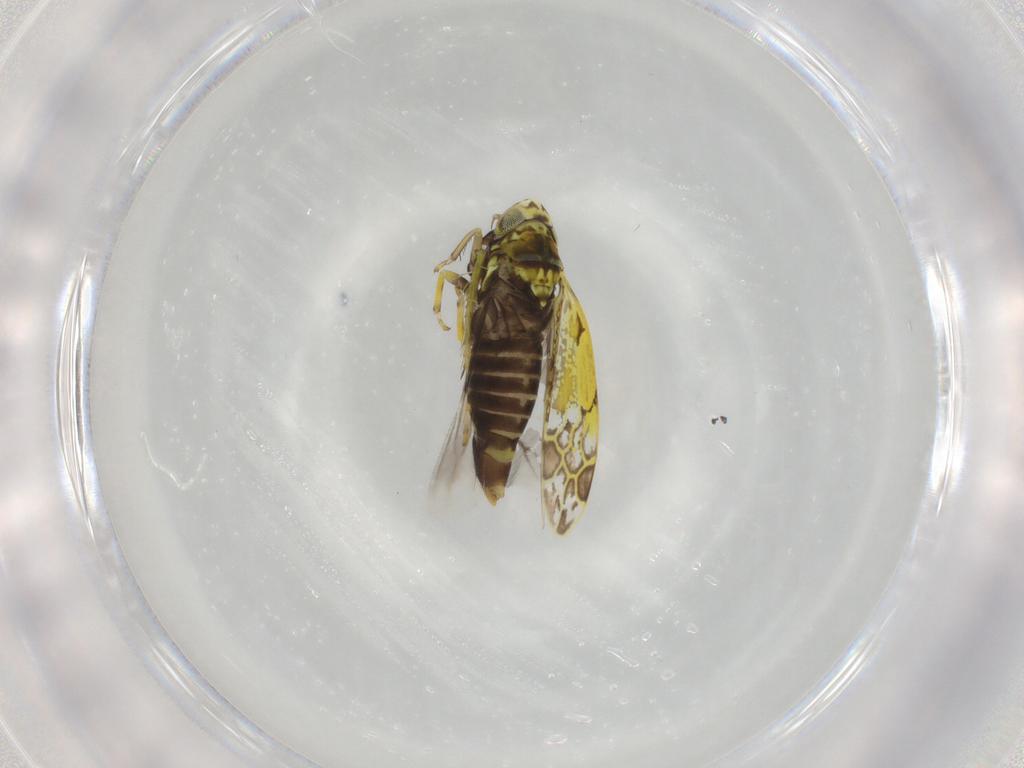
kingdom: Animalia
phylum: Arthropoda
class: Insecta
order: Hemiptera
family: Cicadellidae
